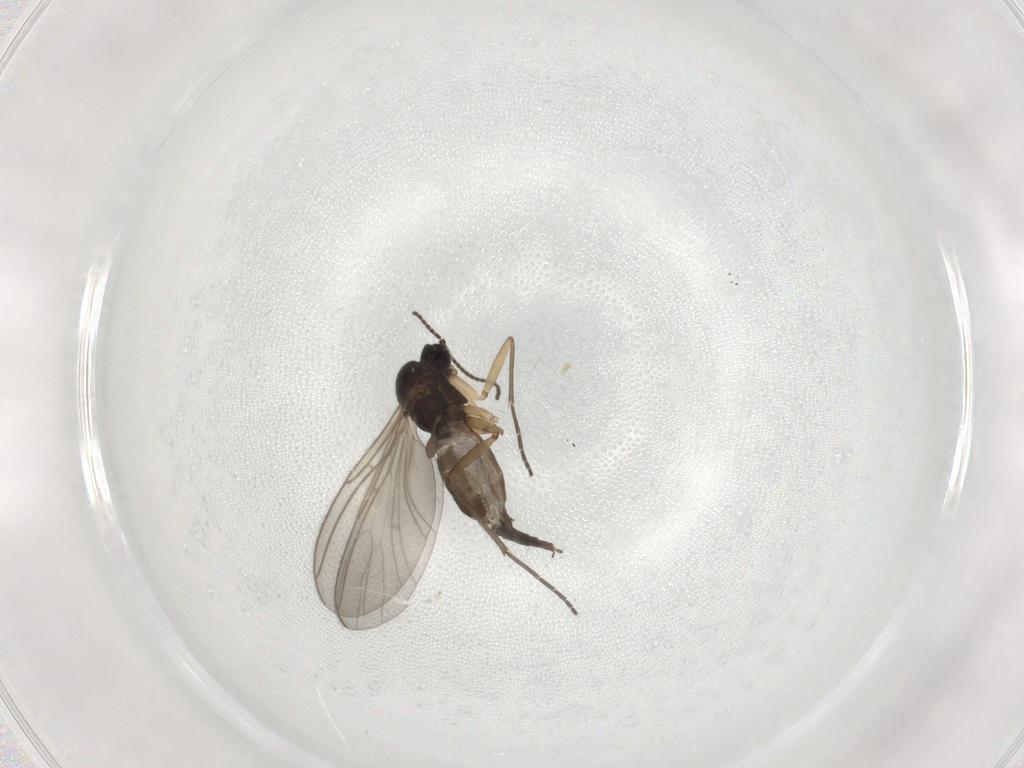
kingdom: Animalia
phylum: Arthropoda
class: Insecta
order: Diptera
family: Sciaridae
